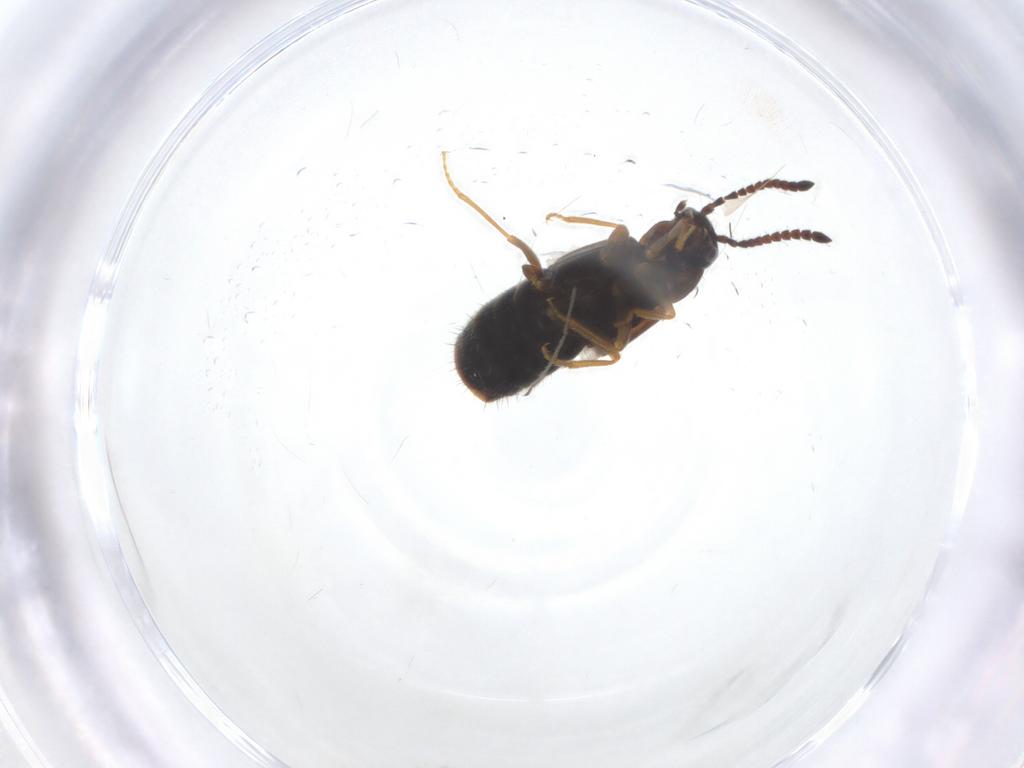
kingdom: Animalia
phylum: Arthropoda
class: Insecta
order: Coleoptera
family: Staphylinidae
